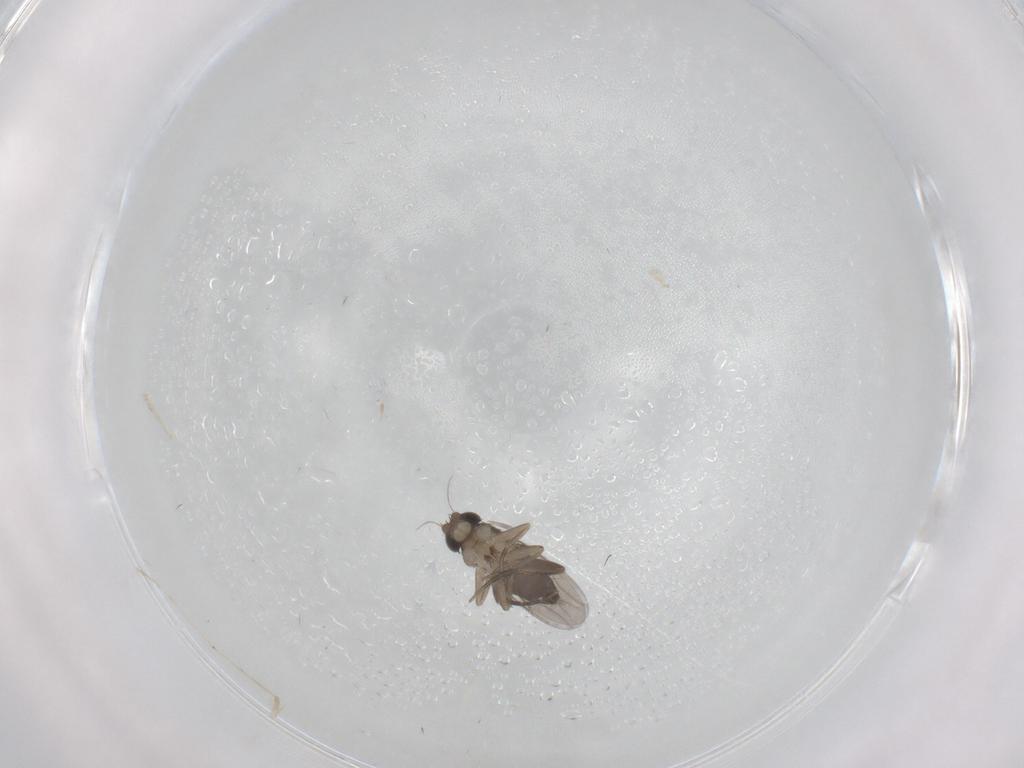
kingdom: Animalia
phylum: Arthropoda
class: Insecta
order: Diptera
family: Phoridae
